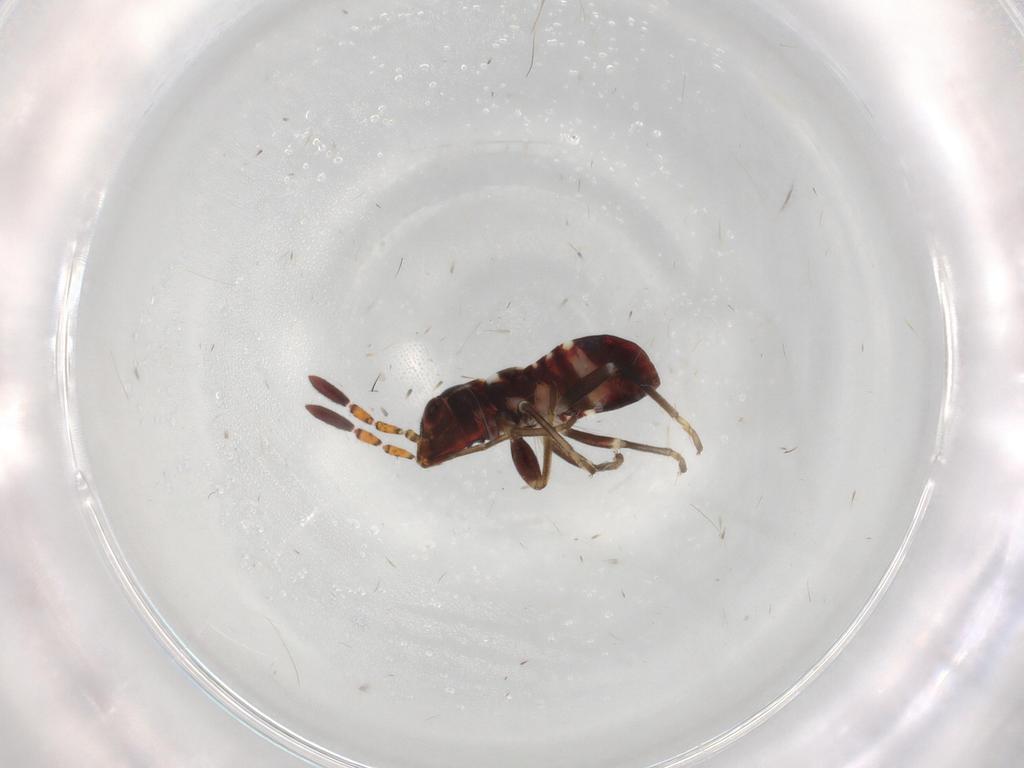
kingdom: Animalia
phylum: Arthropoda
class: Insecta
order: Hemiptera
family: Rhyparochromidae
